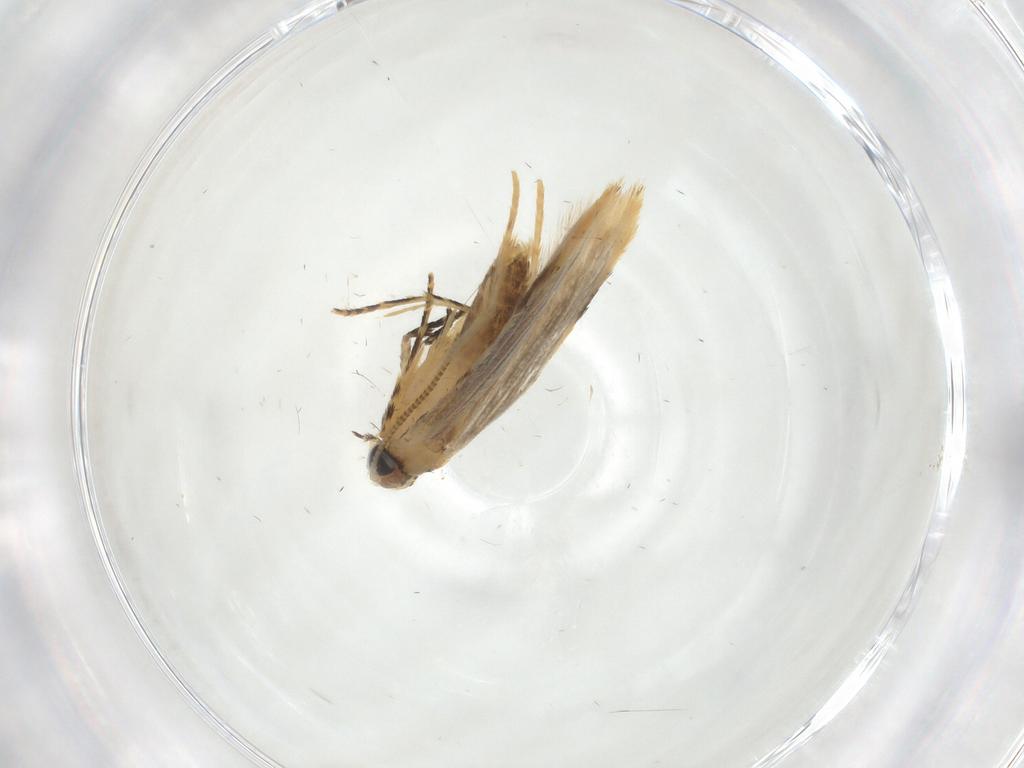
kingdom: Animalia
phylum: Arthropoda
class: Insecta
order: Lepidoptera
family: Tineidae
